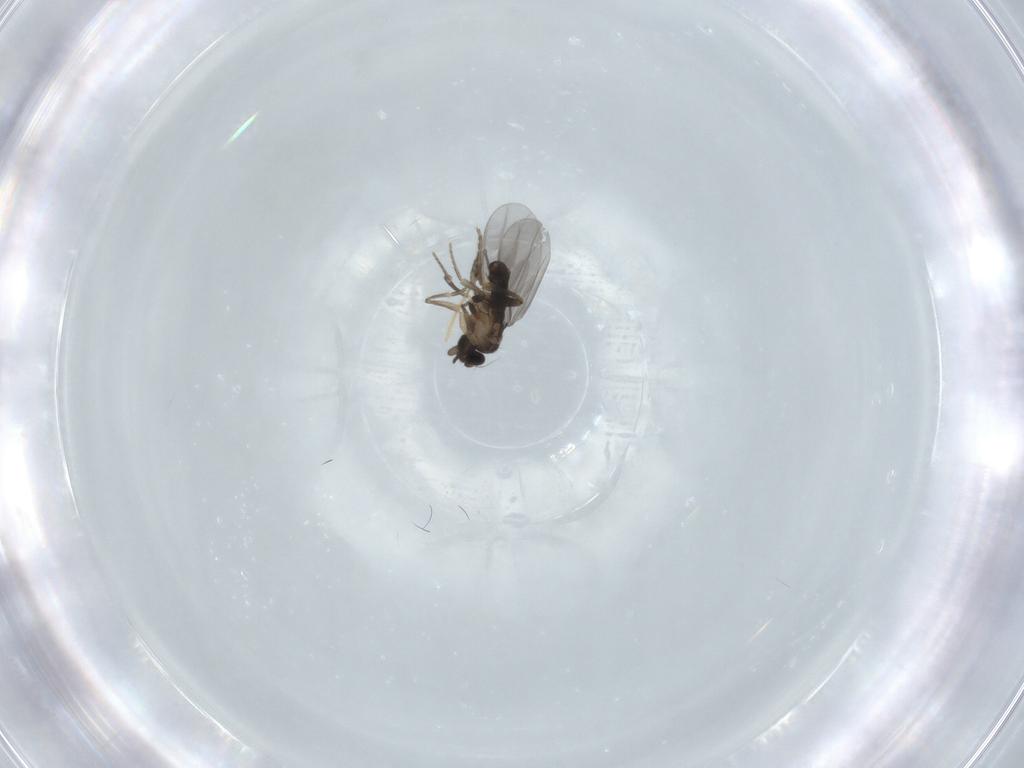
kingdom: Animalia
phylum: Arthropoda
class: Insecta
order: Diptera
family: Limoniidae
